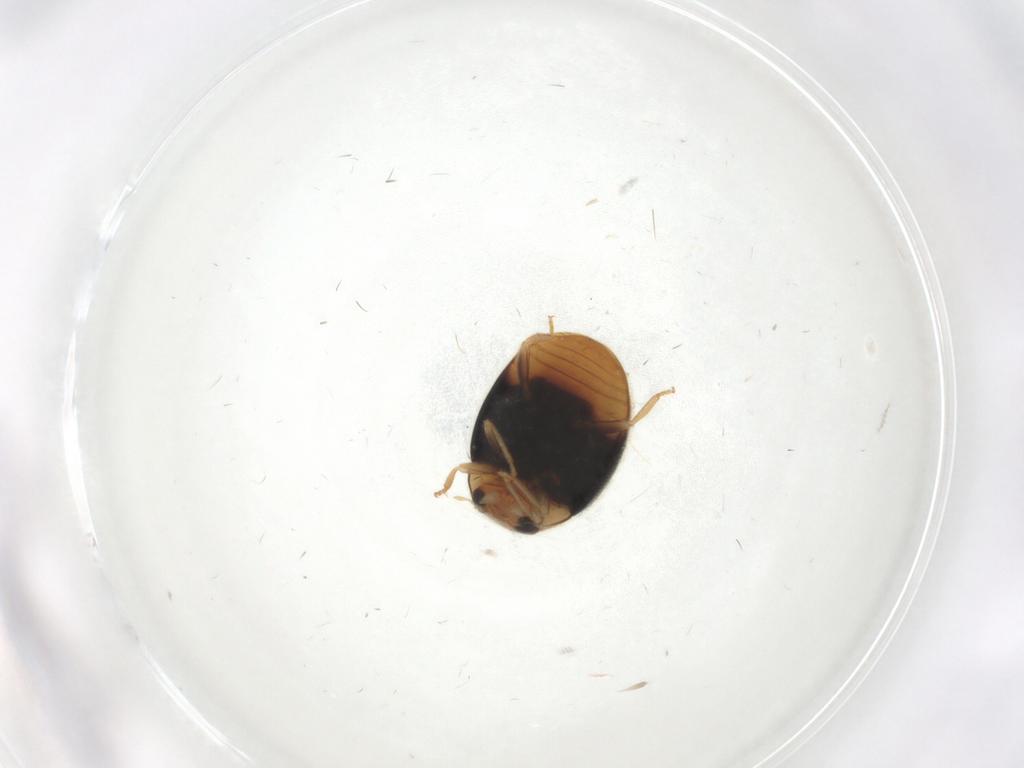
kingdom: Animalia
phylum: Arthropoda
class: Insecta
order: Coleoptera
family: Coccinellidae
